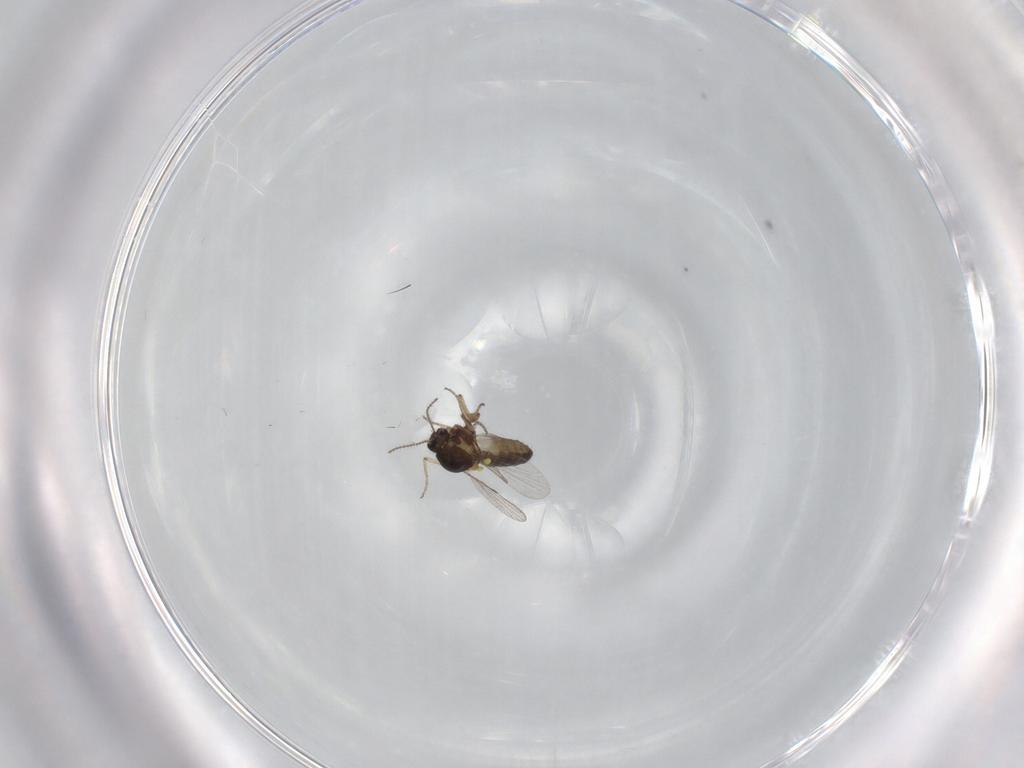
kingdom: Animalia
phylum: Arthropoda
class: Insecta
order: Diptera
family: Ceratopogonidae
